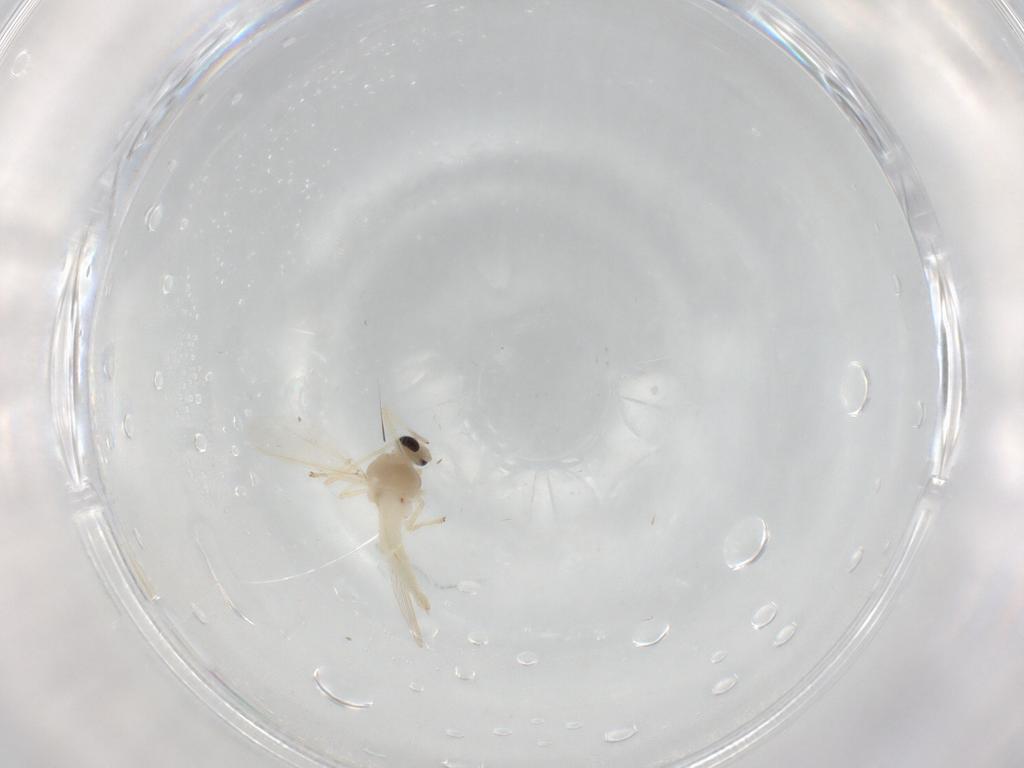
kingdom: Animalia
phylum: Arthropoda
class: Insecta
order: Diptera
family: Chironomidae
